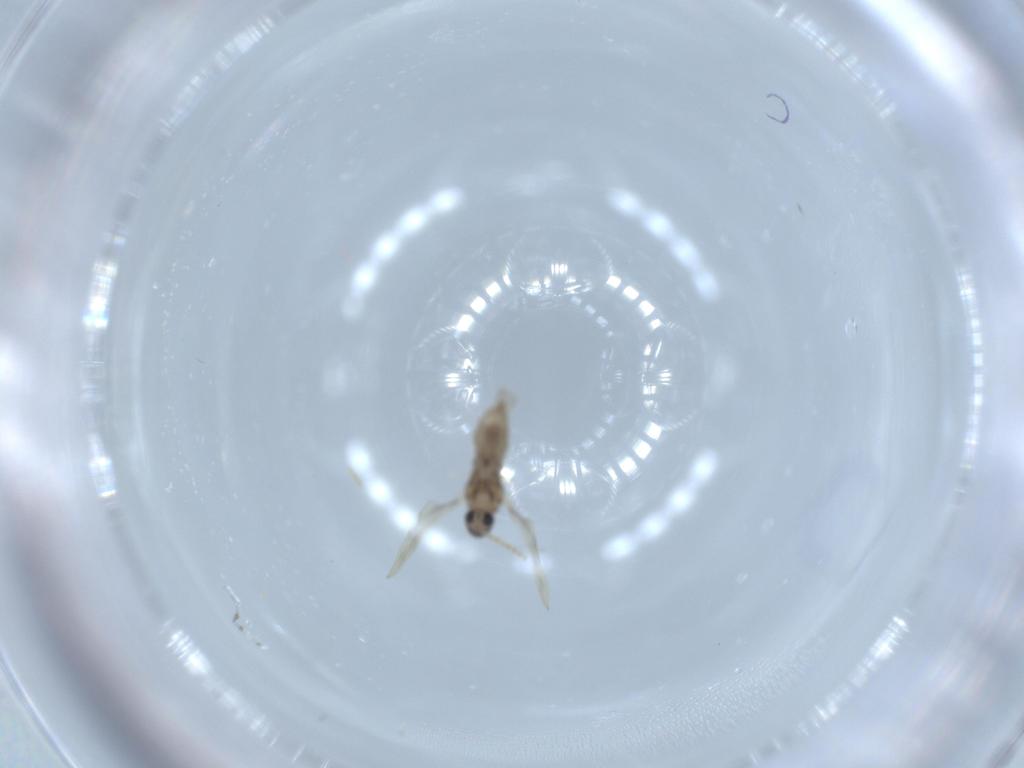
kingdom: Animalia
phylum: Arthropoda
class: Insecta
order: Diptera
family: Cecidomyiidae
